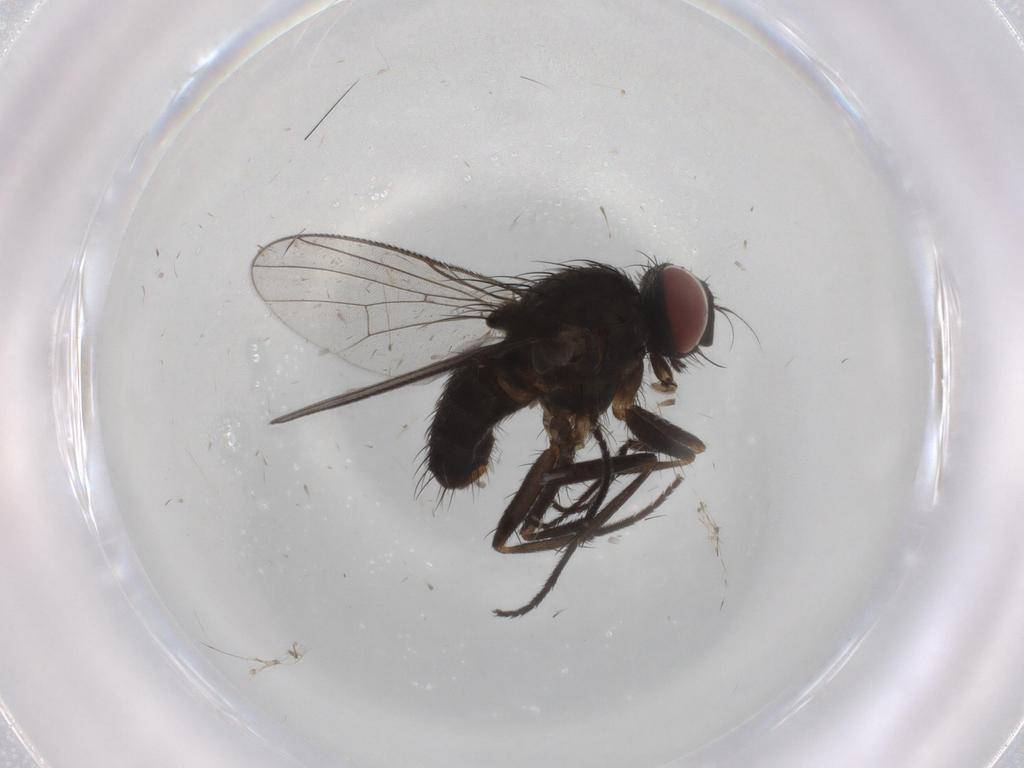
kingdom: Animalia
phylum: Arthropoda
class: Insecta
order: Diptera
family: Muscidae
